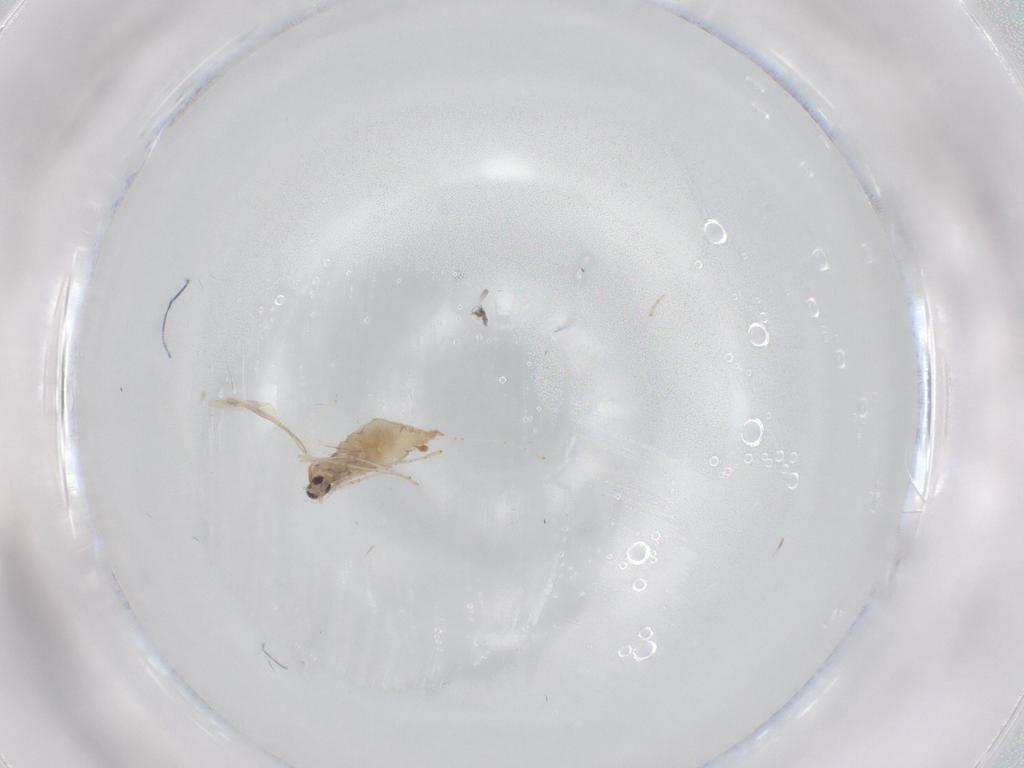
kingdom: Animalia
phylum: Arthropoda
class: Insecta
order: Diptera
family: Cecidomyiidae
